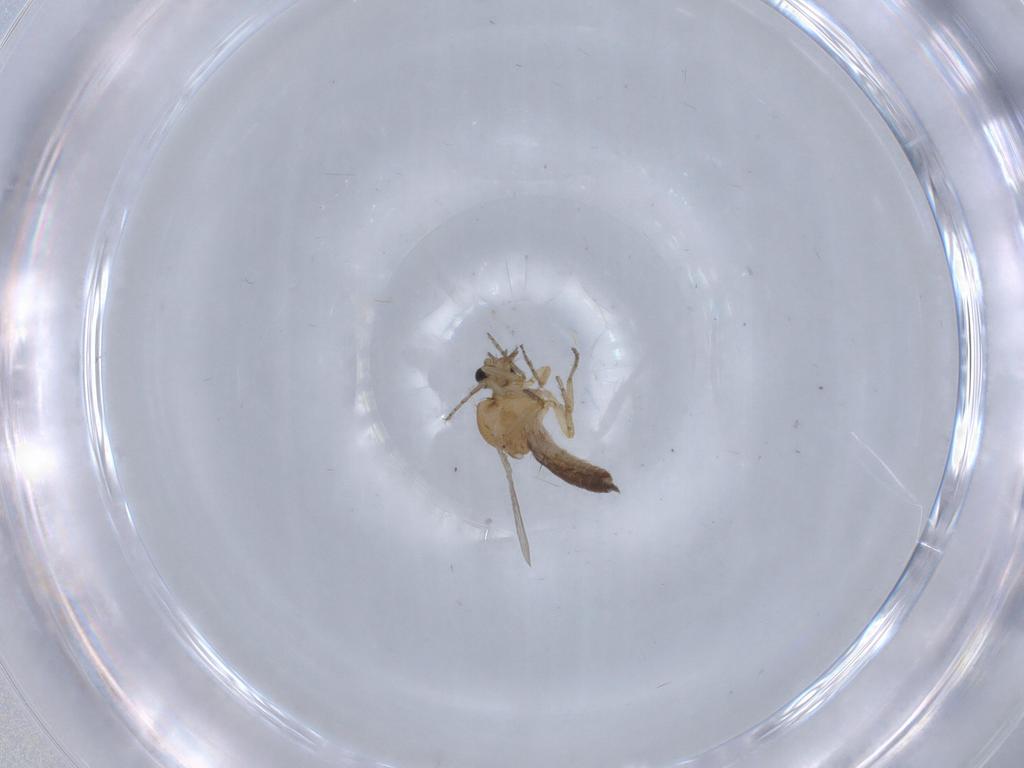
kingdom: Animalia
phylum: Arthropoda
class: Insecta
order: Diptera
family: Ceratopogonidae
